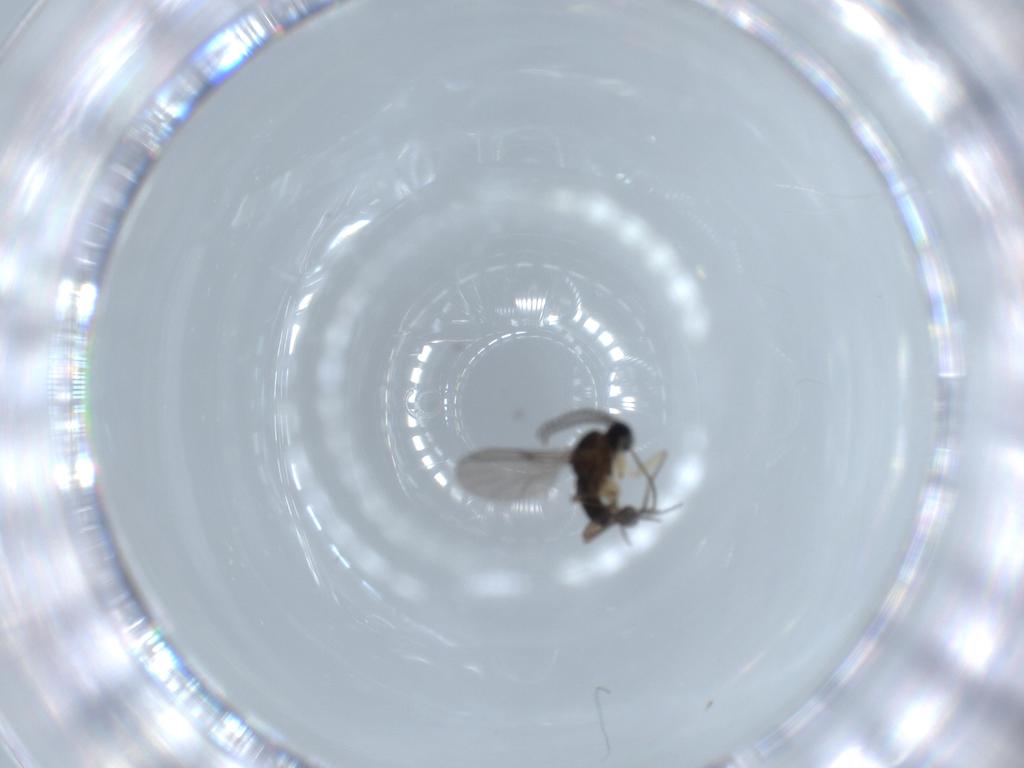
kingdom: Animalia
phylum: Arthropoda
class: Insecta
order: Diptera
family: Sciaridae
